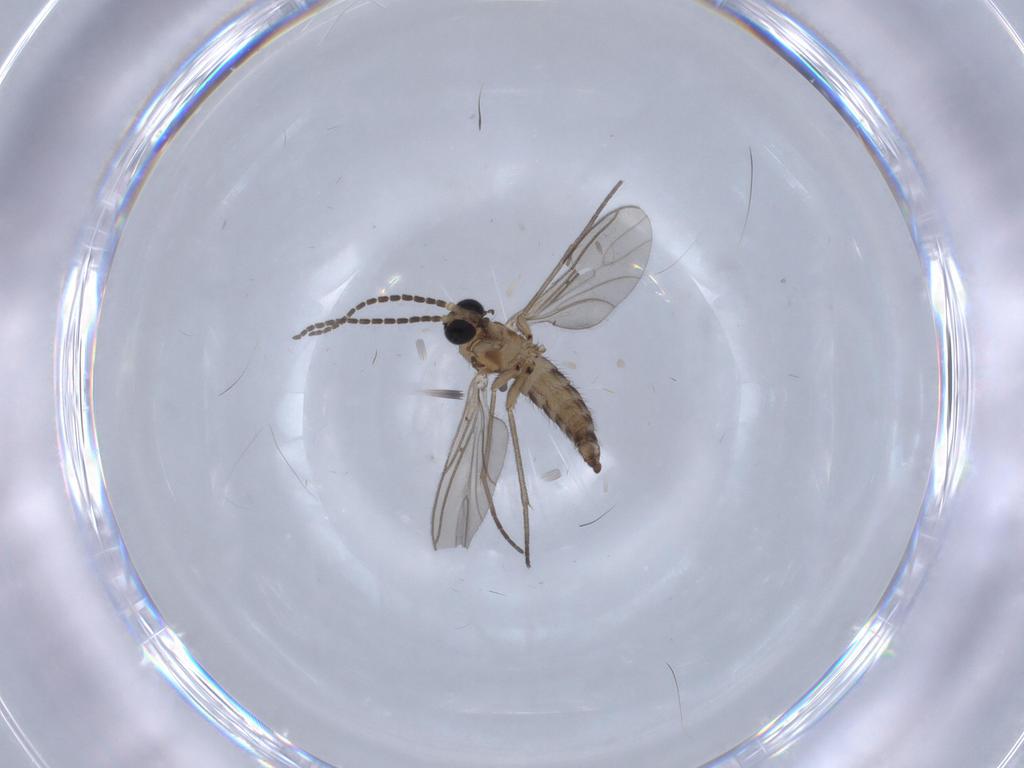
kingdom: Animalia
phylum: Arthropoda
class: Insecta
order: Diptera
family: Sciaridae
